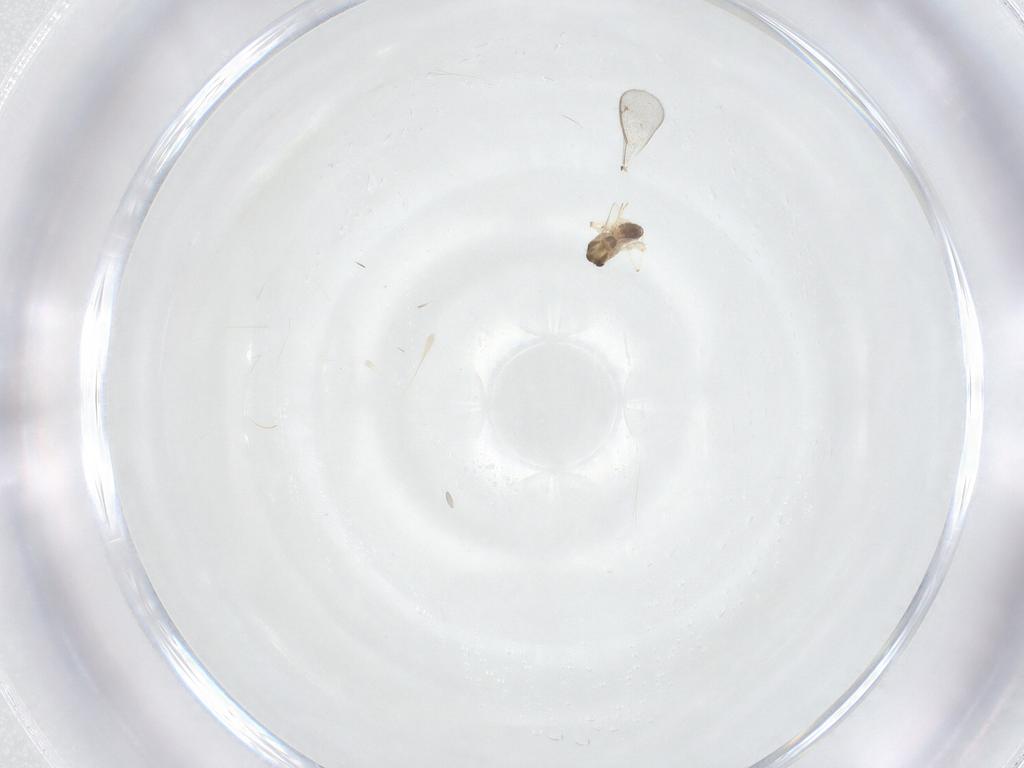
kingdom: Animalia
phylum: Arthropoda
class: Insecta
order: Diptera
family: Chironomidae
